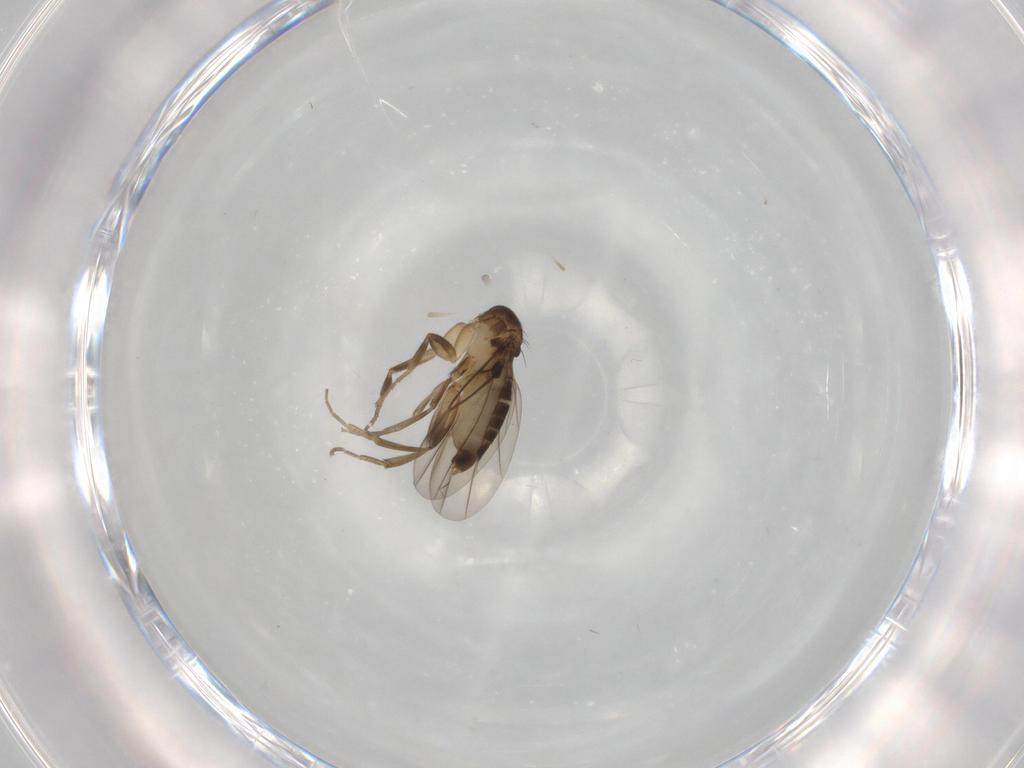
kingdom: Animalia
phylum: Arthropoda
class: Insecta
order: Diptera
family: Phoridae
